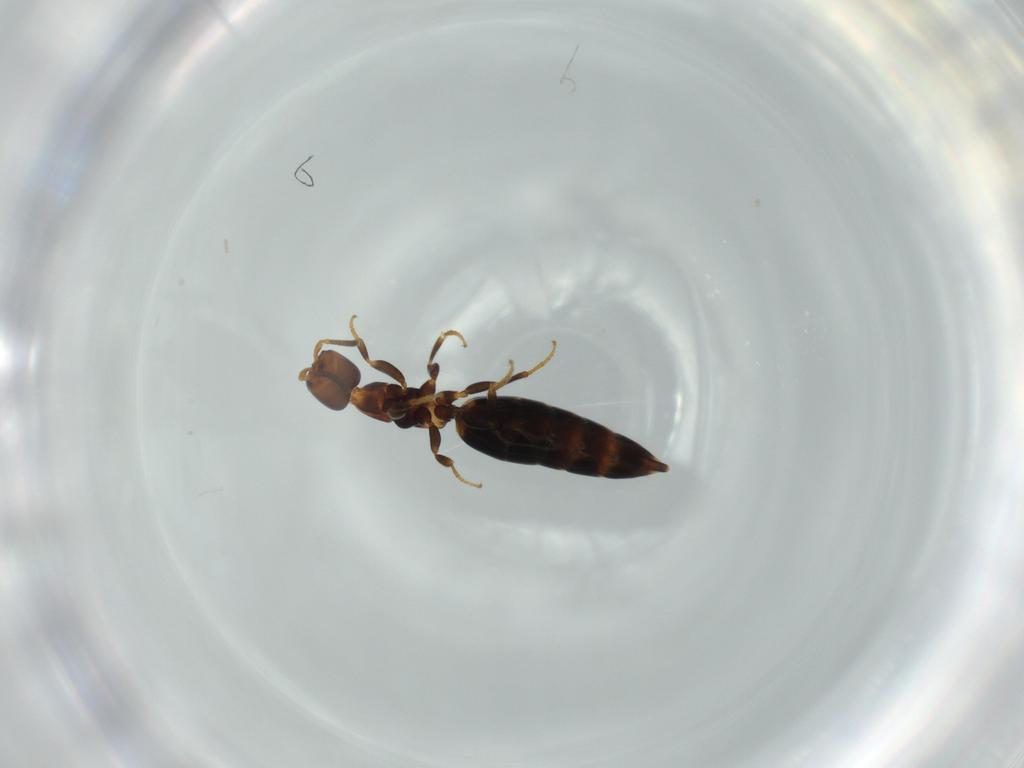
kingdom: Animalia
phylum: Arthropoda
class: Insecta
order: Hymenoptera
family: Bethylidae
